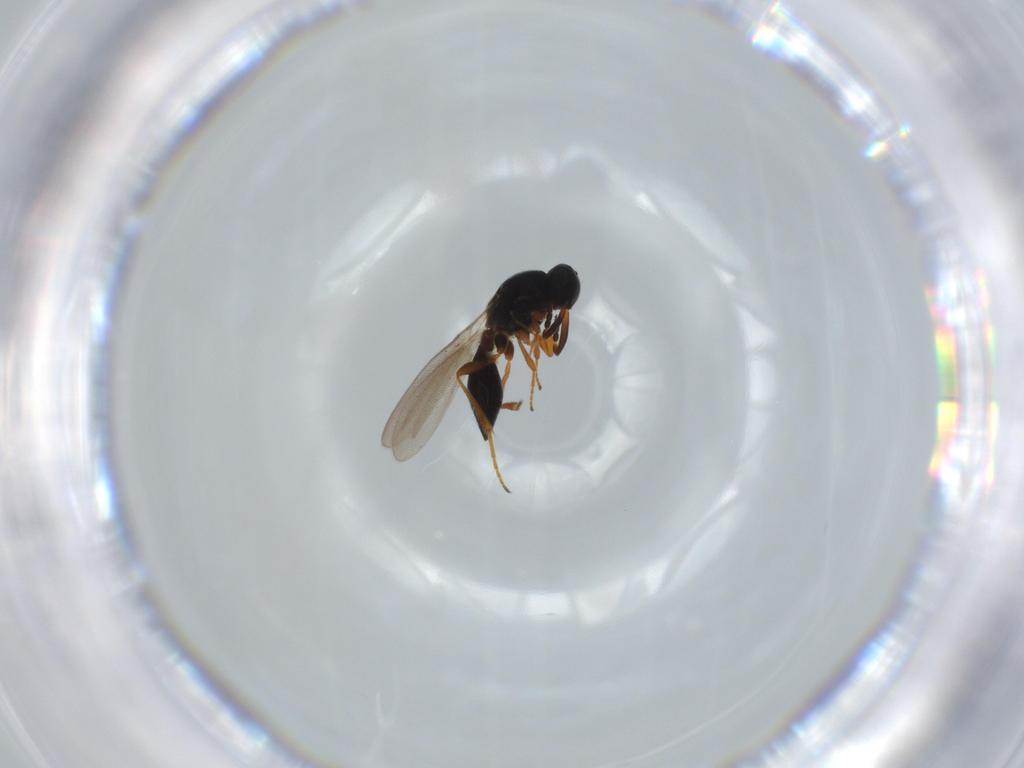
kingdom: Animalia
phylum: Arthropoda
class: Insecta
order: Hymenoptera
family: Platygastridae
